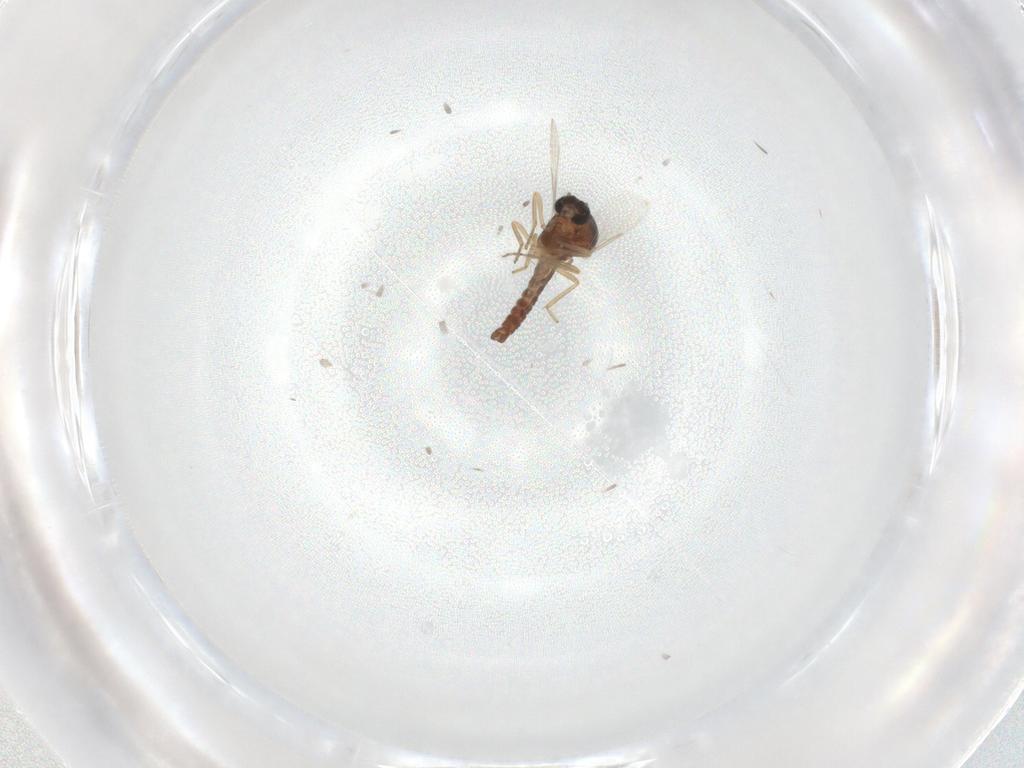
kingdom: Animalia
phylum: Arthropoda
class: Insecta
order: Diptera
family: Ceratopogonidae
